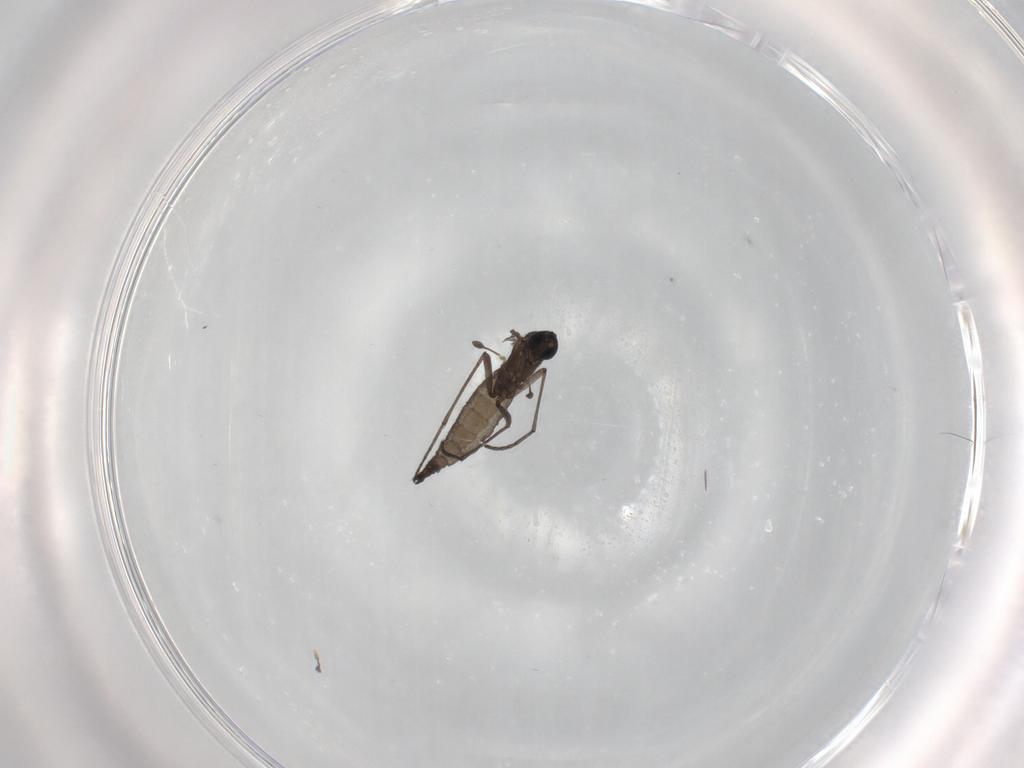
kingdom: Animalia
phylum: Arthropoda
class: Insecta
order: Diptera
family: Sciaridae
